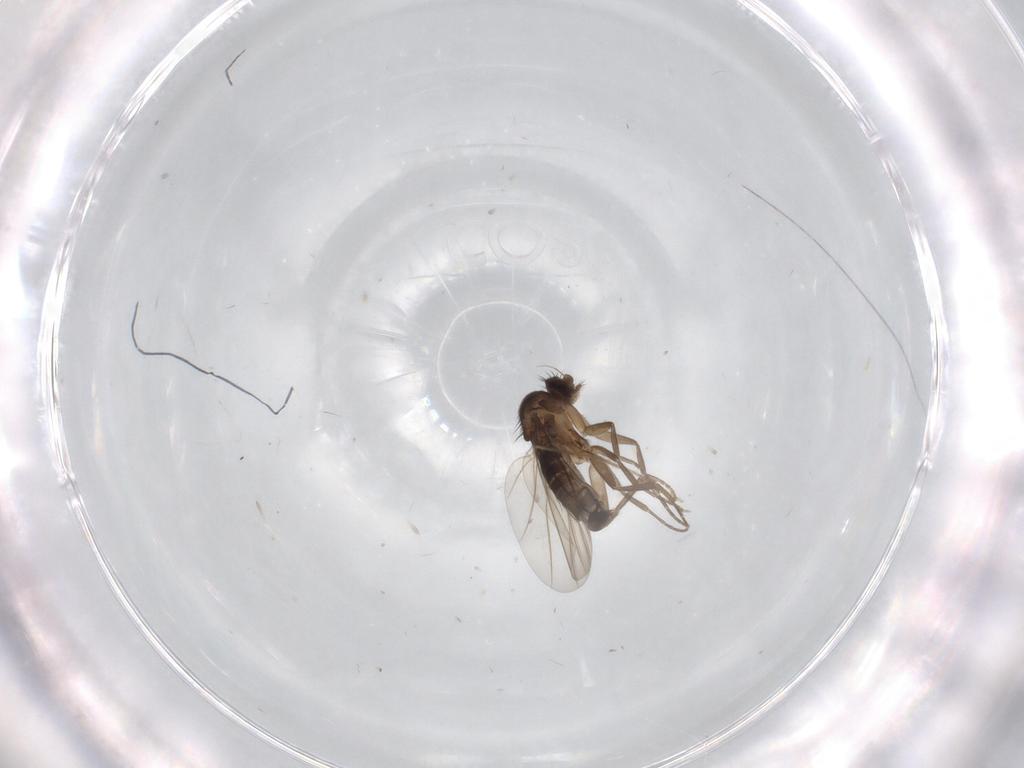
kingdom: Animalia
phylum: Arthropoda
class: Insecta
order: Diptera
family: Phoridae
